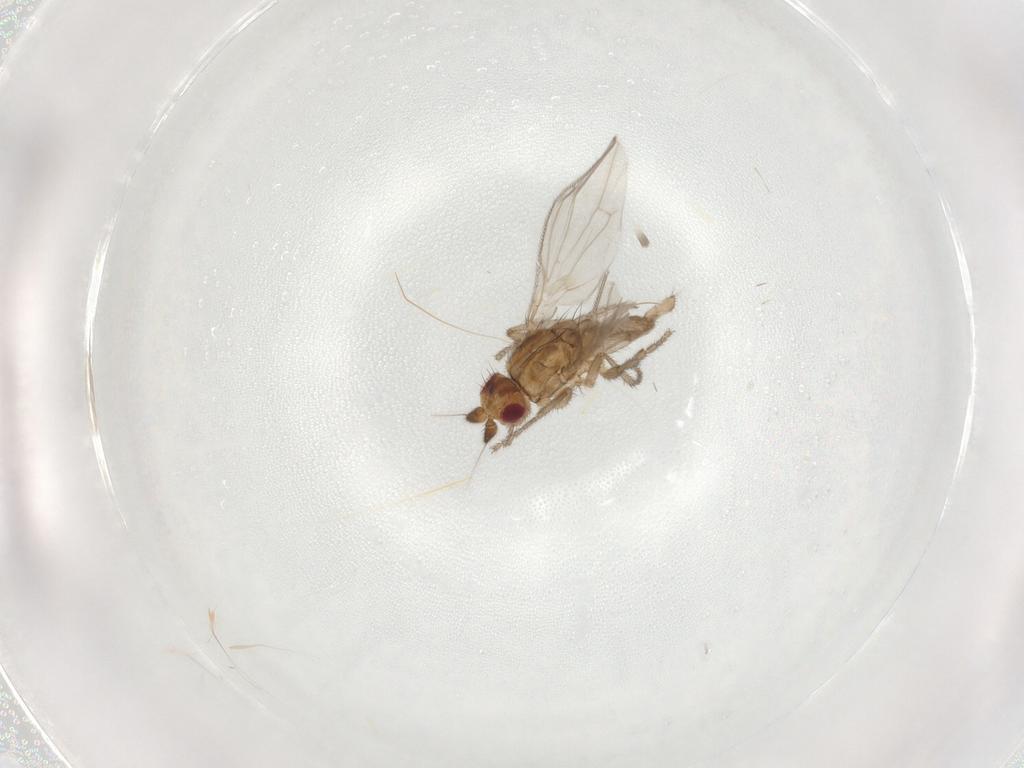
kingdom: Animalia
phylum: Arthropoda
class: Insecta
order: Diptera
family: Sphaeroceridae
